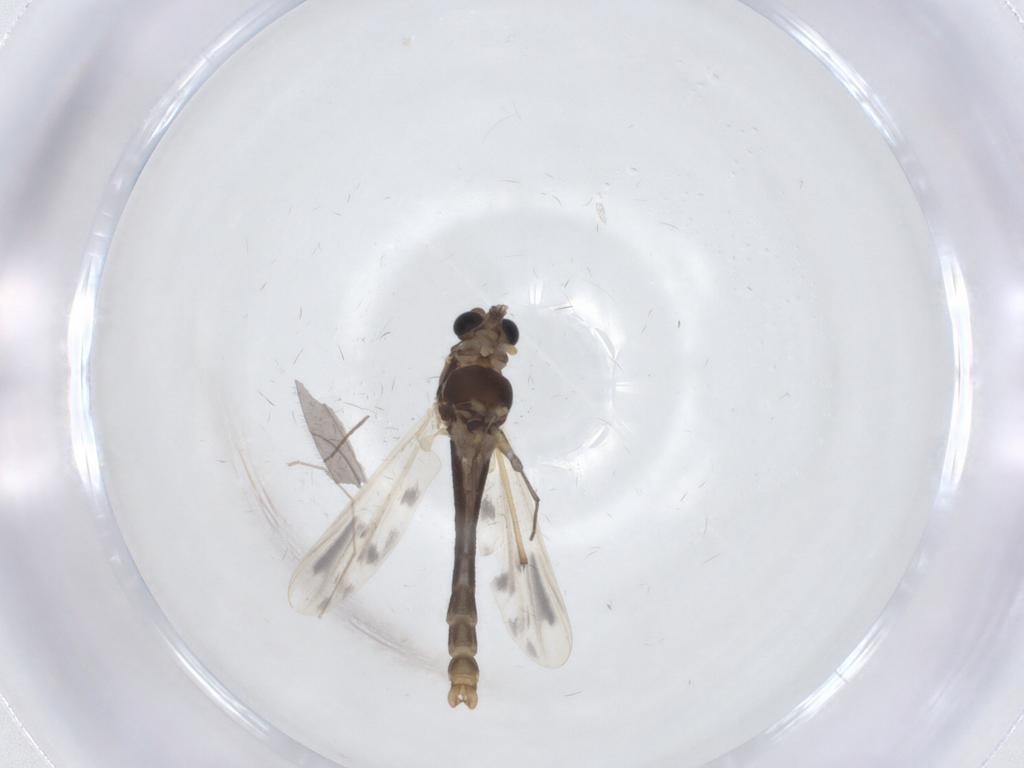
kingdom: Animalia
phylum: Arthropoda
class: Insecta
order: Diptera
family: Chironomidae
